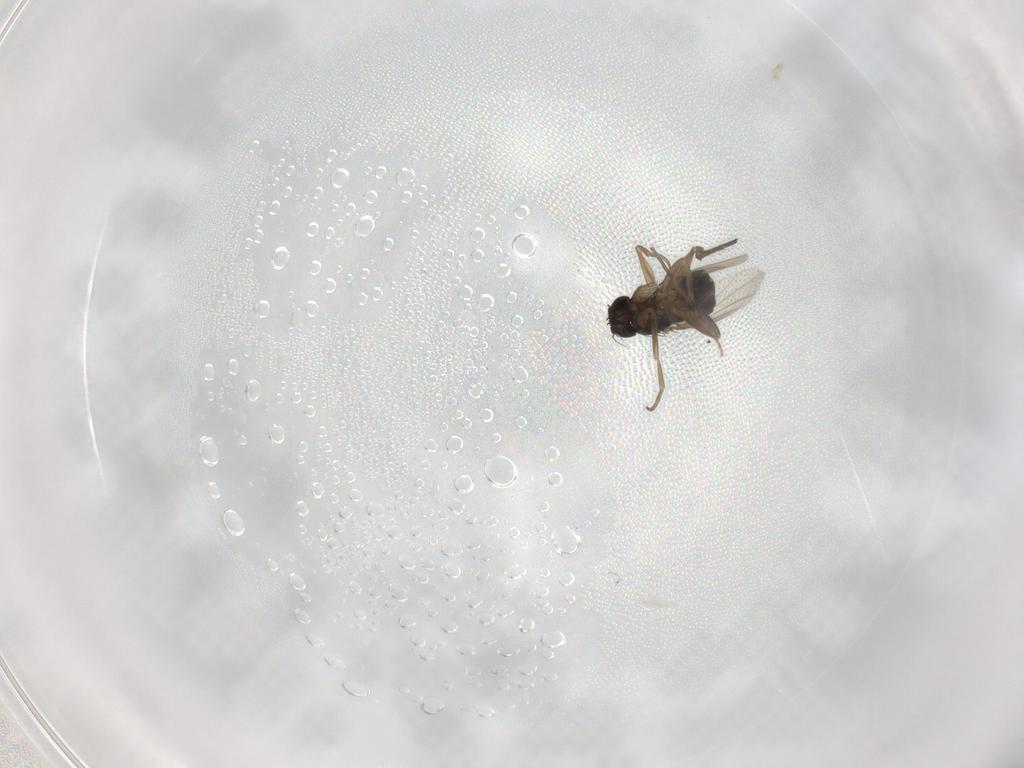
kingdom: Animalia
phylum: Arthropoda
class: Insecta
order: Diptera
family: Phoridae
